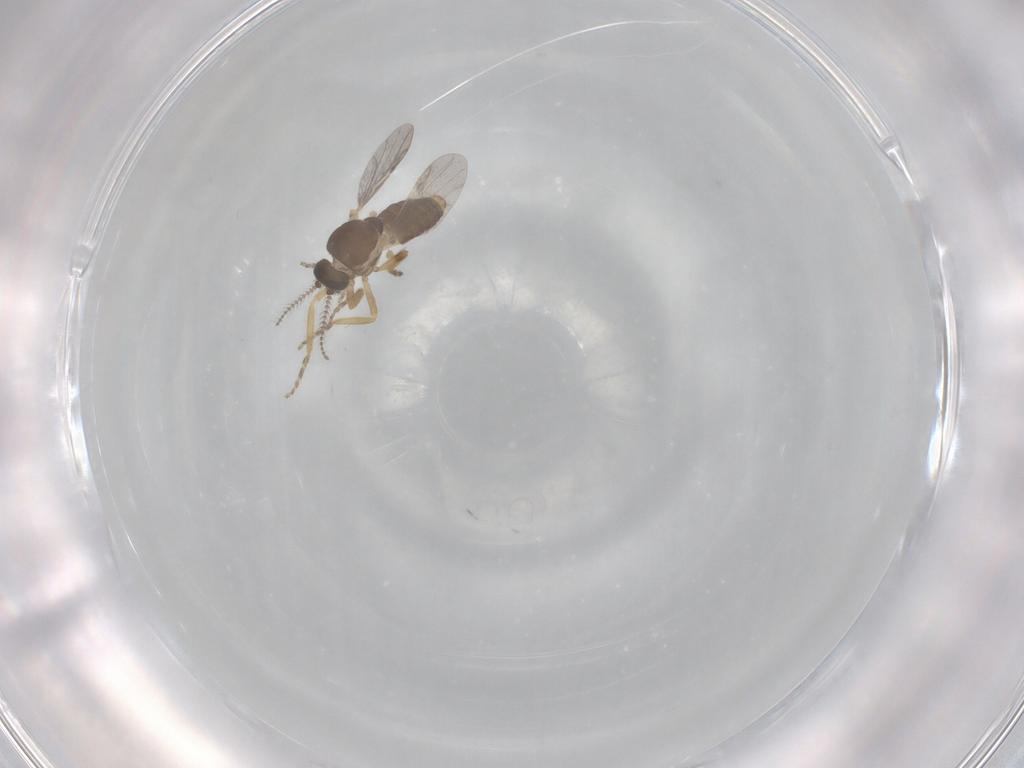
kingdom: Animalia
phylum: Arthropoda
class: Insecta
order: Diptera
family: Ceratopogonidae
